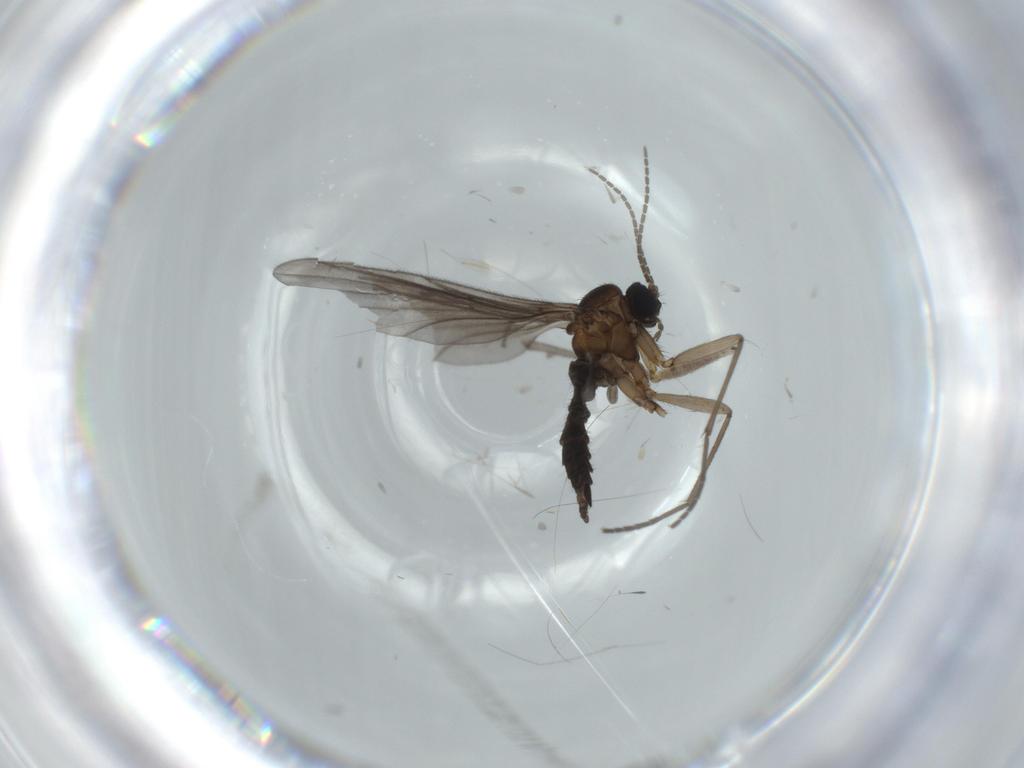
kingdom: Animalia
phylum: Arthropoda
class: Insecta
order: Diptera
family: Sciaridae
